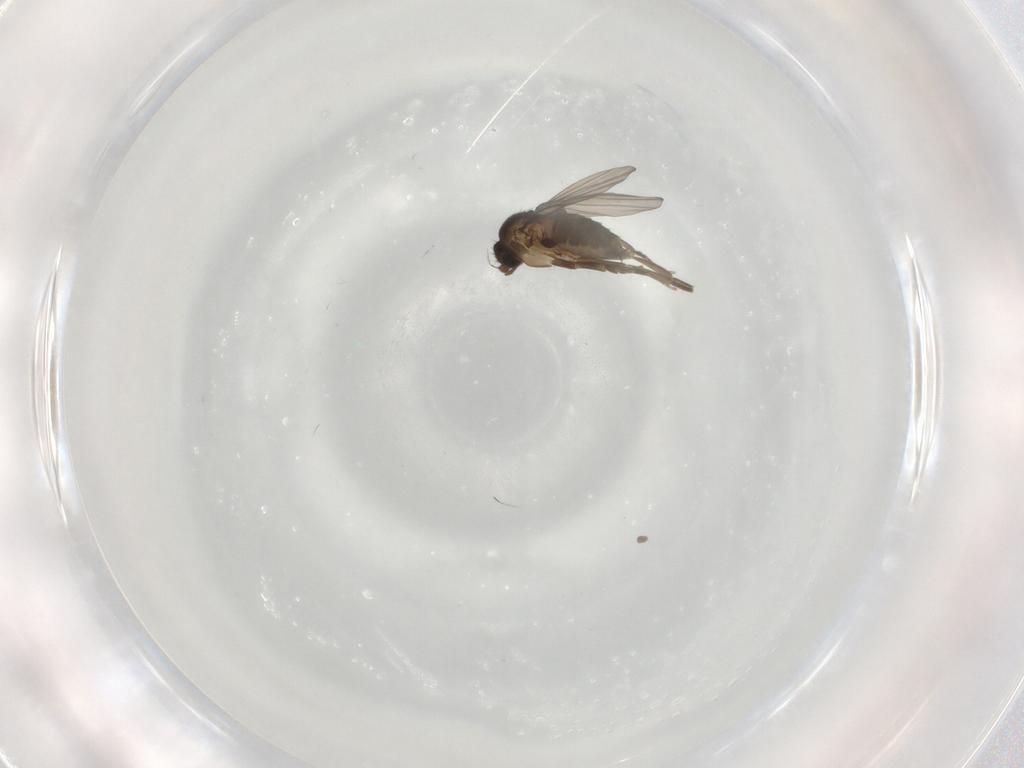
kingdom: Animalia
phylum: Arthropoda
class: Insecta
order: Diptera
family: Phoridae
